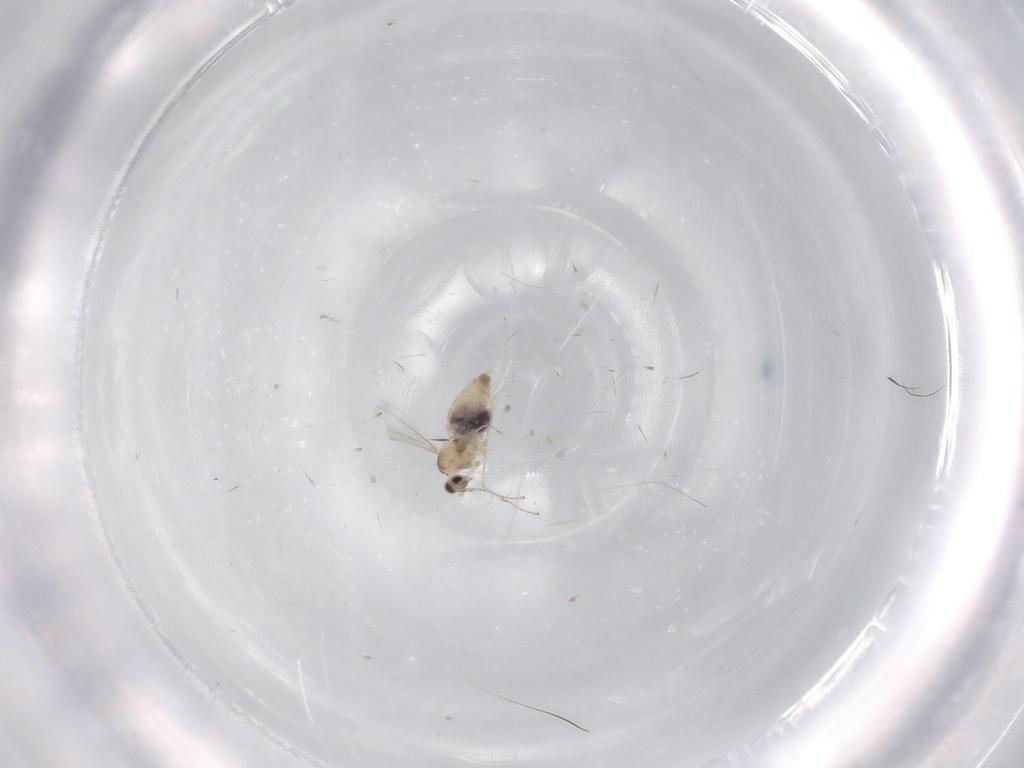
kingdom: Animalia
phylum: Arthropoda
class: Insecta
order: Diptera
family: Cecidomyiidae
